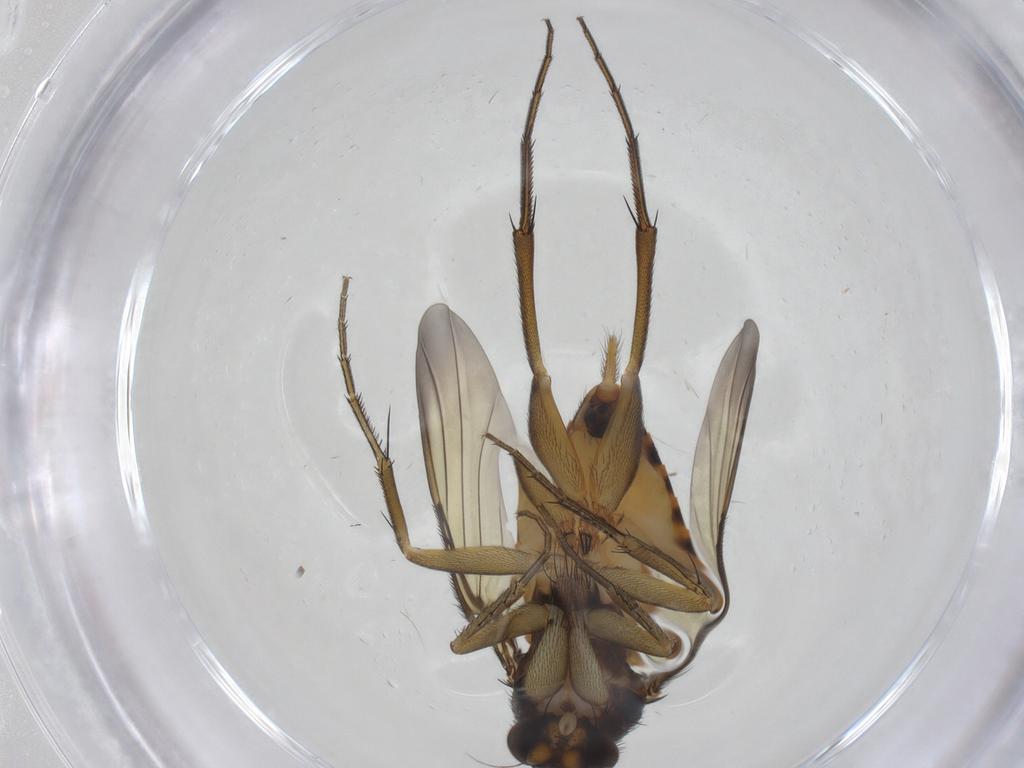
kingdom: Animalia
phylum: Arthropoda
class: Insecta
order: Diptera
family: Phoridae
